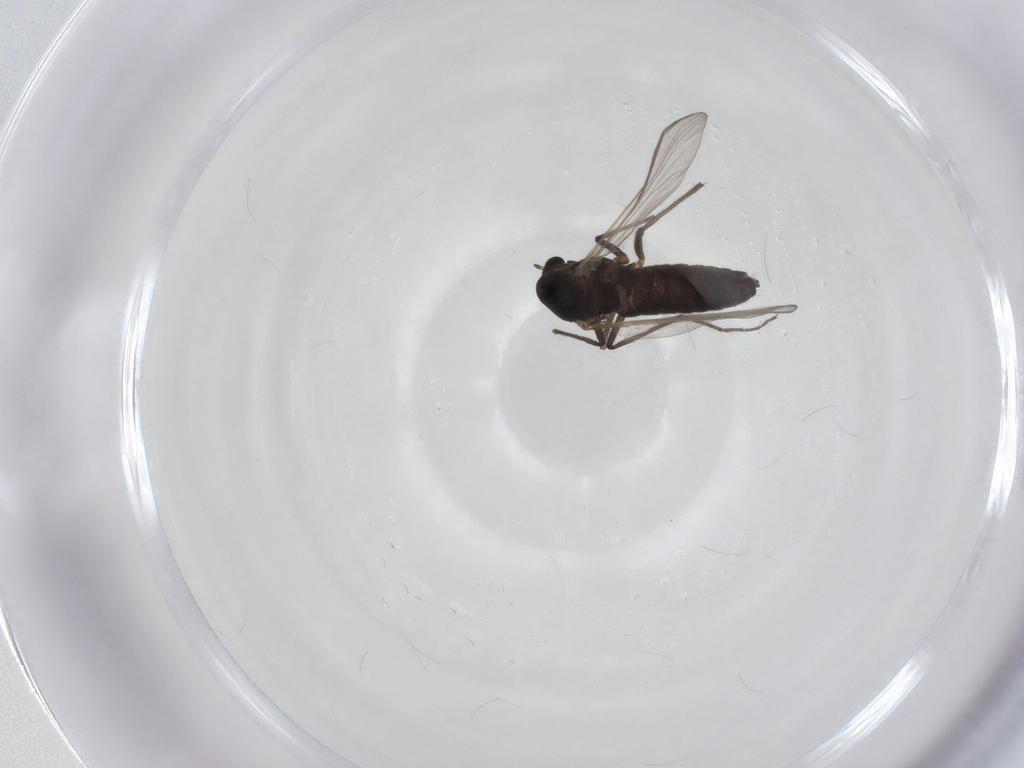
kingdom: Animalia
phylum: Arthropoda
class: Insecta
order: Diptera
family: Chironomidae
